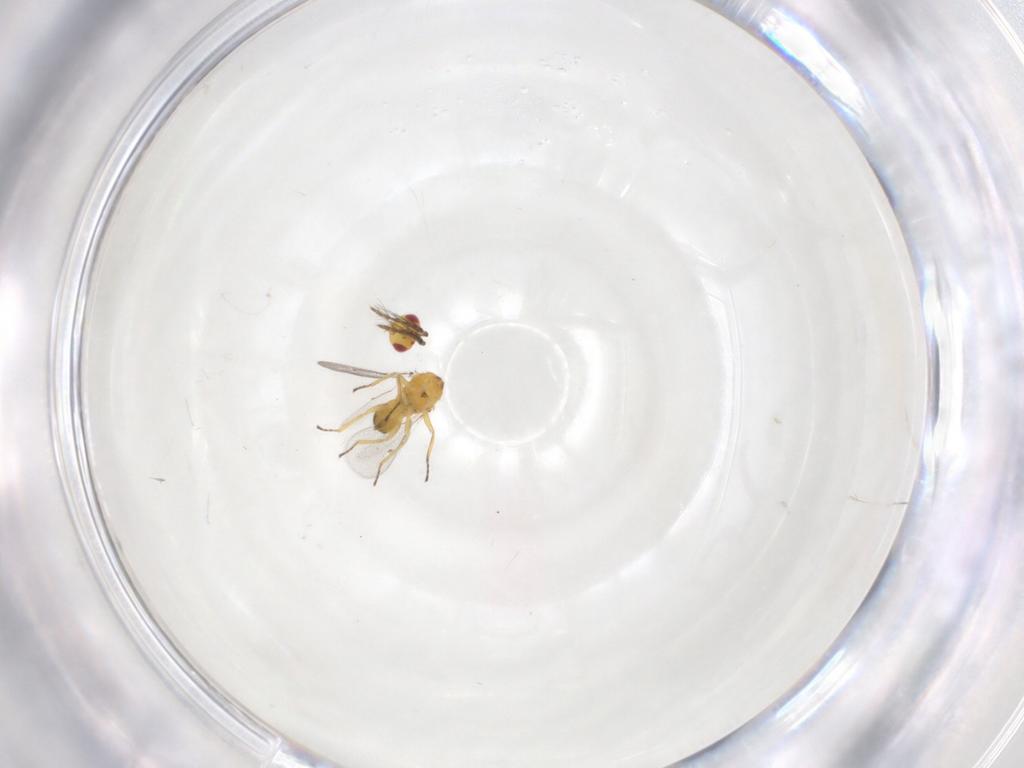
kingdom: Animalia
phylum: Arthropoda
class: Insecta
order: Hymenoptera
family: Eulophidae
